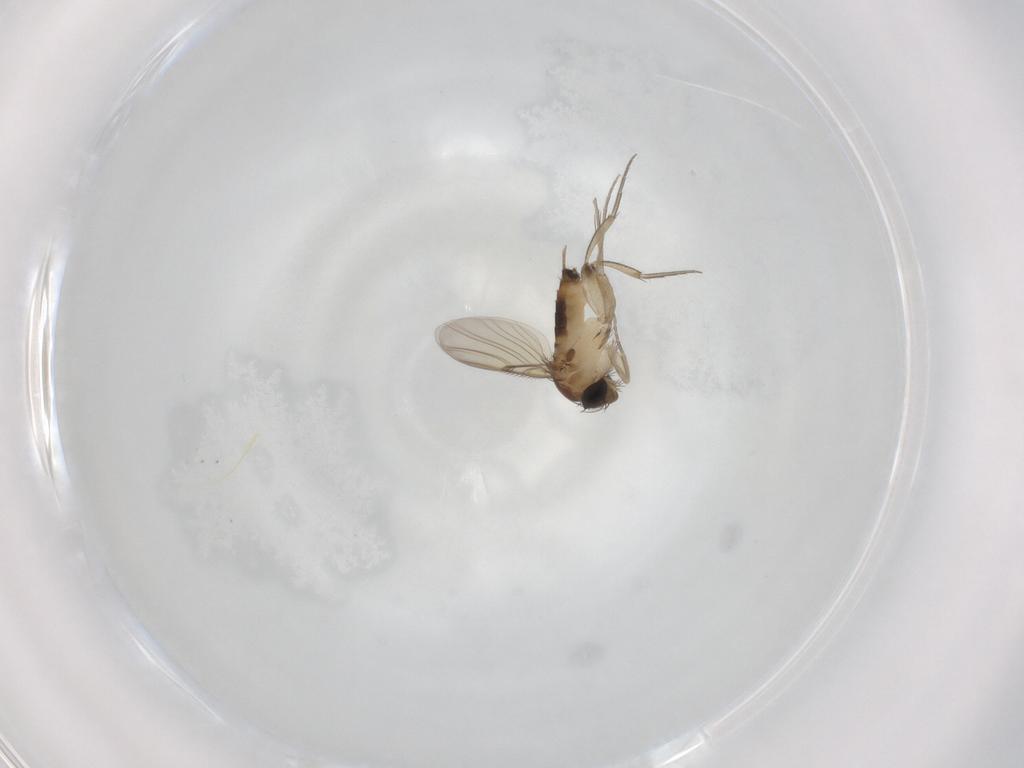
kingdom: Animalia
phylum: Arthropoda
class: Insecta
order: Diptera
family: Phoridae
